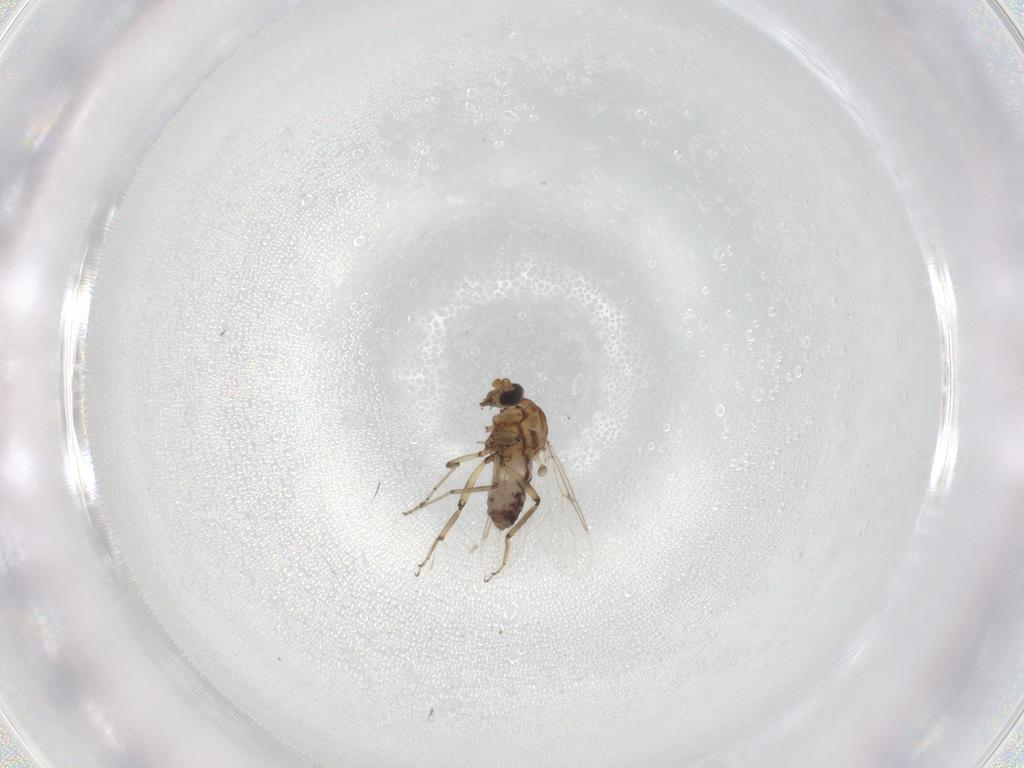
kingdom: Animalia
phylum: Arthropoda
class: Insecta
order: Diptera
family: Ceratopogonidae
